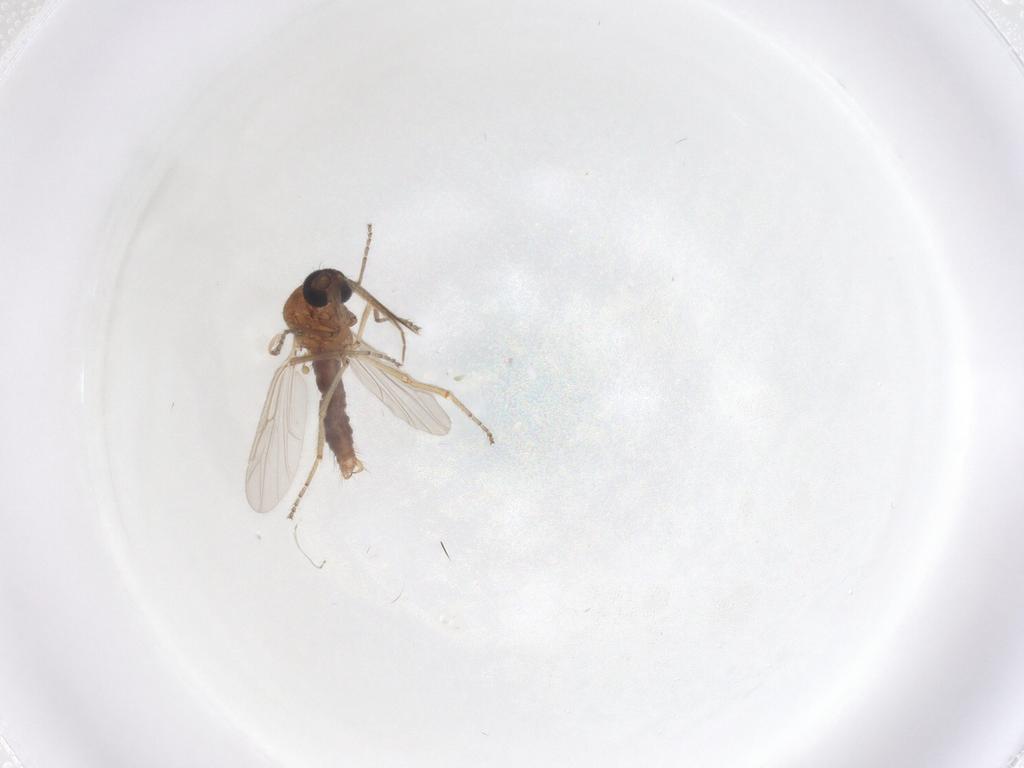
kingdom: Animalia
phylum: Arthropoda
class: Insecta
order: Diptera
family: Ceratopogonidae
